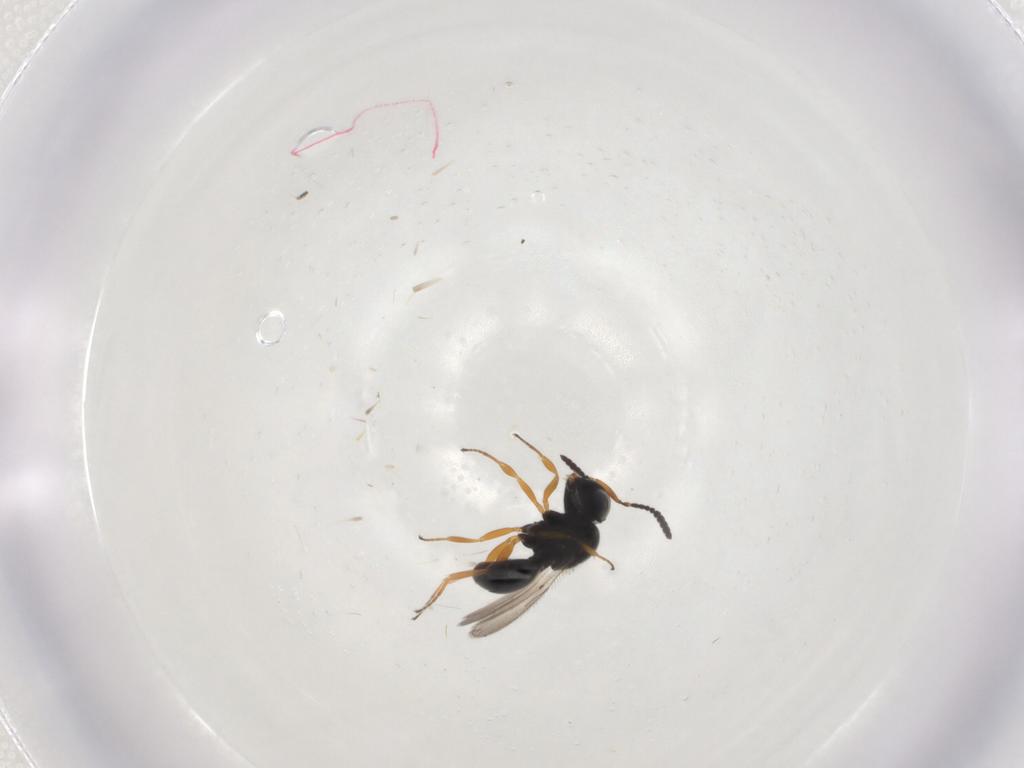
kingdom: Animalia
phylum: Arthropoda
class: Insecta
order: Hymenoptera
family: Scelionidae
